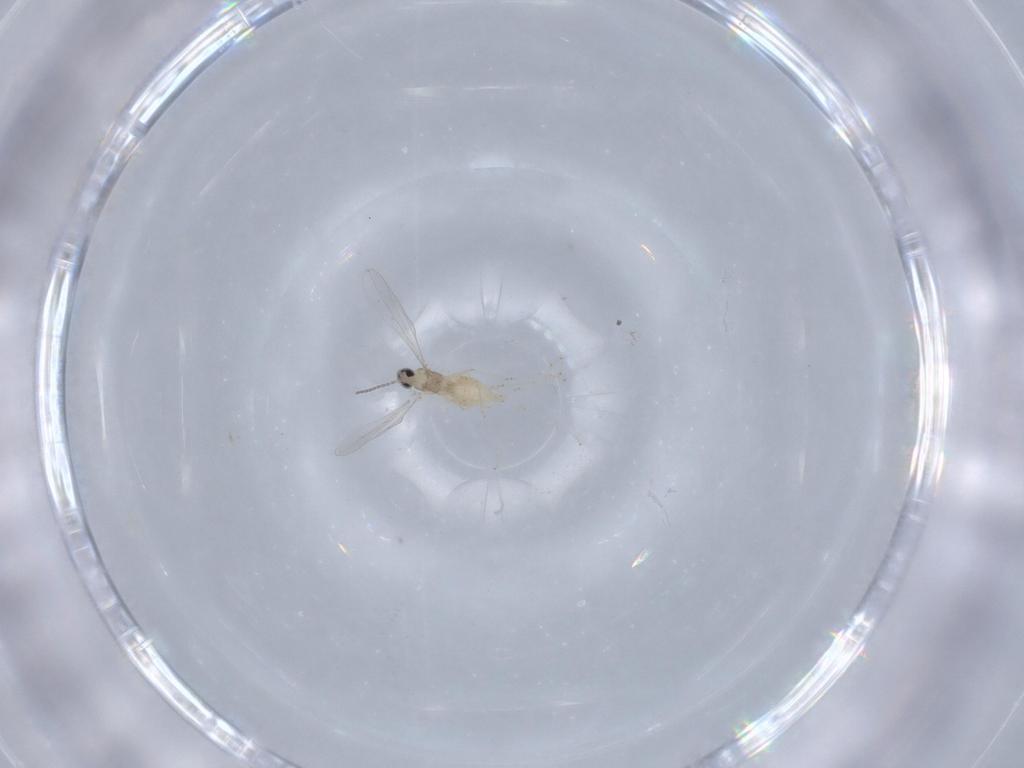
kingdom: Animalia
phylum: Arthropoda
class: Insecta
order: Diptera
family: Cecidomyiidae
